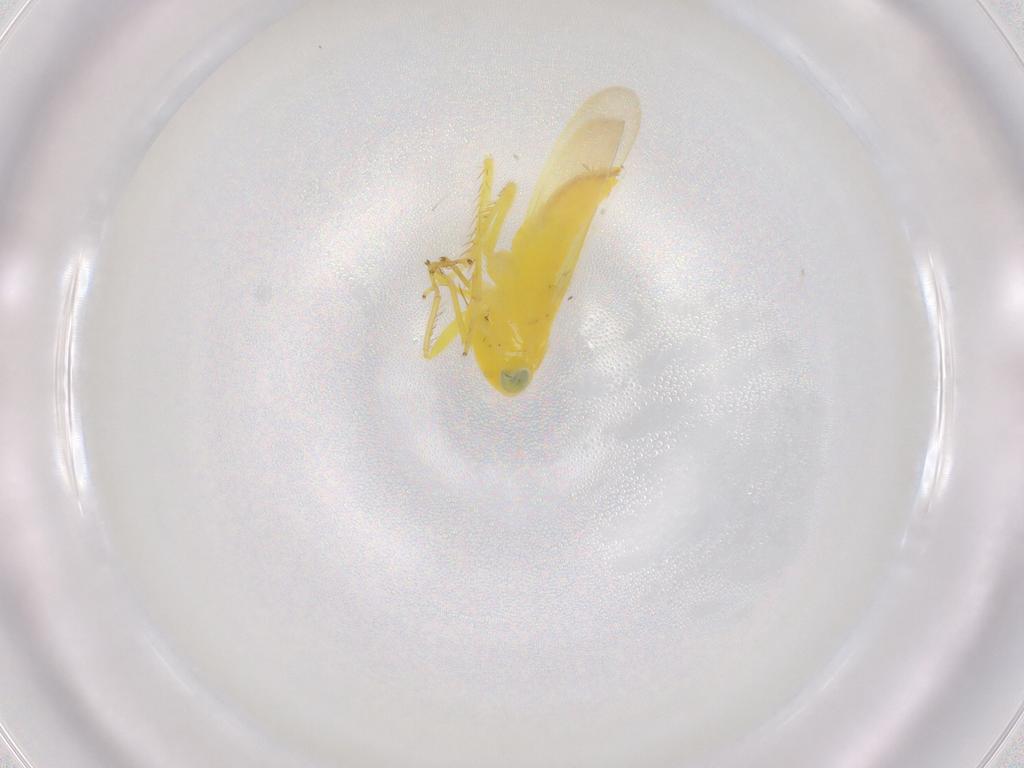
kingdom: Animalia
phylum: Arthropoda
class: Insecta
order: Hemiptera
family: Cicadellidae
